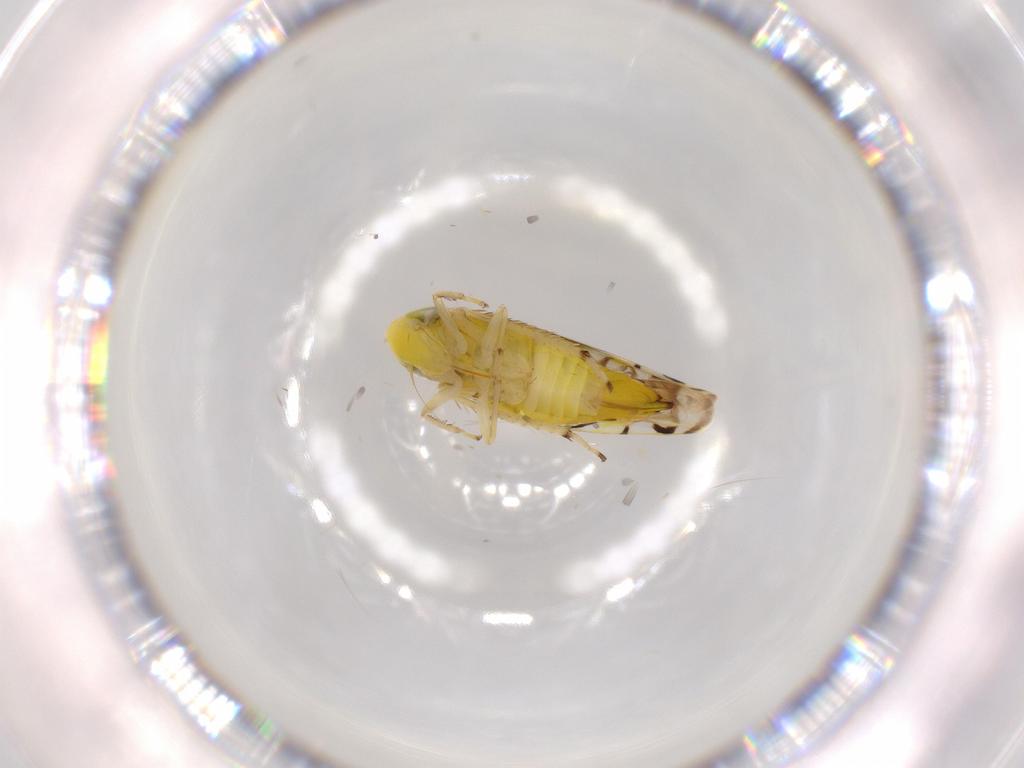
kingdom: Animalia
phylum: Arthropoda
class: Insecta
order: Hemiptera
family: Cicadellidae
